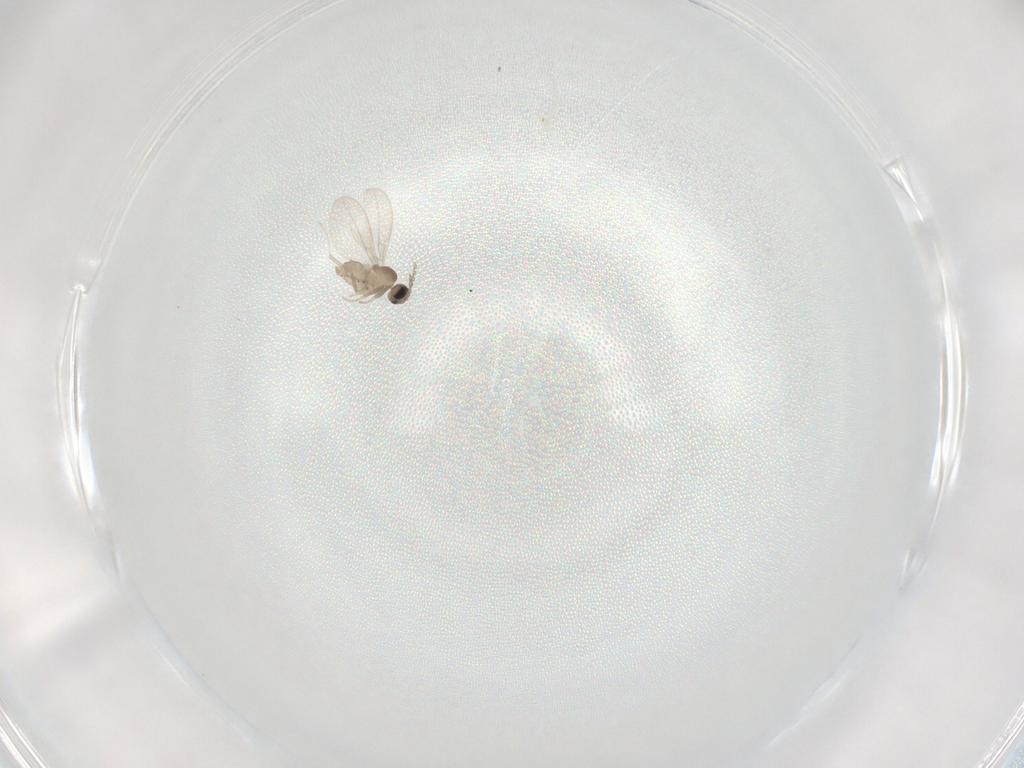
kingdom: Animalia
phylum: Arthropoda
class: Insecta
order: Diptera
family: Cecidomyiidae
